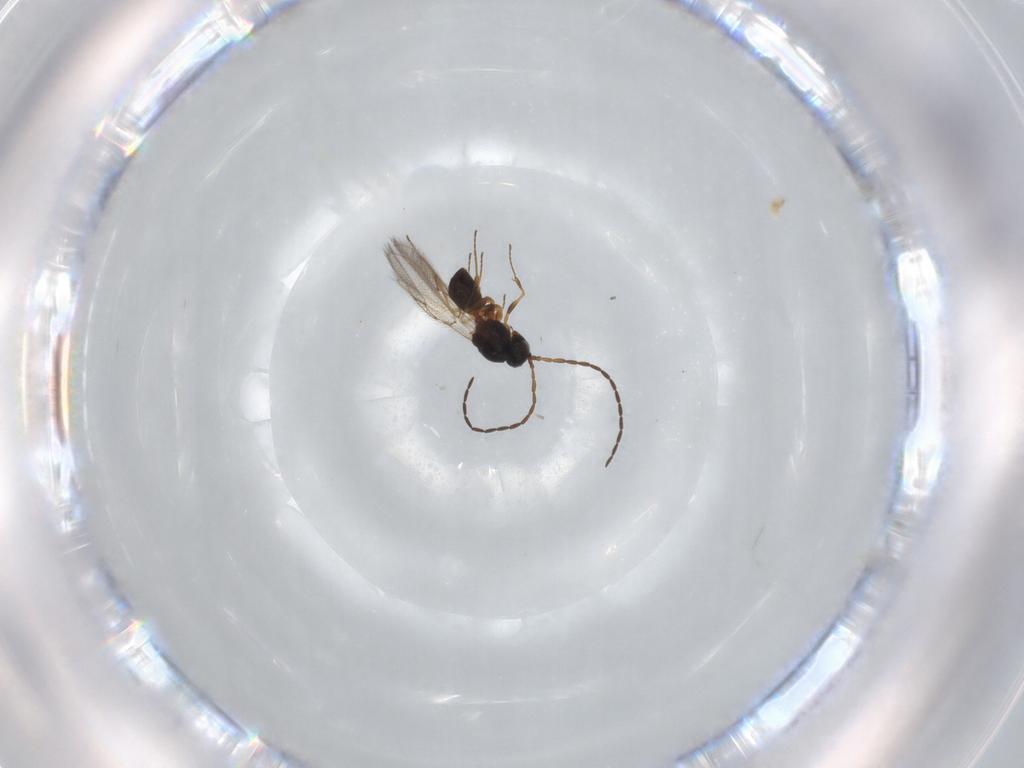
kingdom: Animalia
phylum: Arthropoda
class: Insecta
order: Hymenoptera
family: Figitidae
